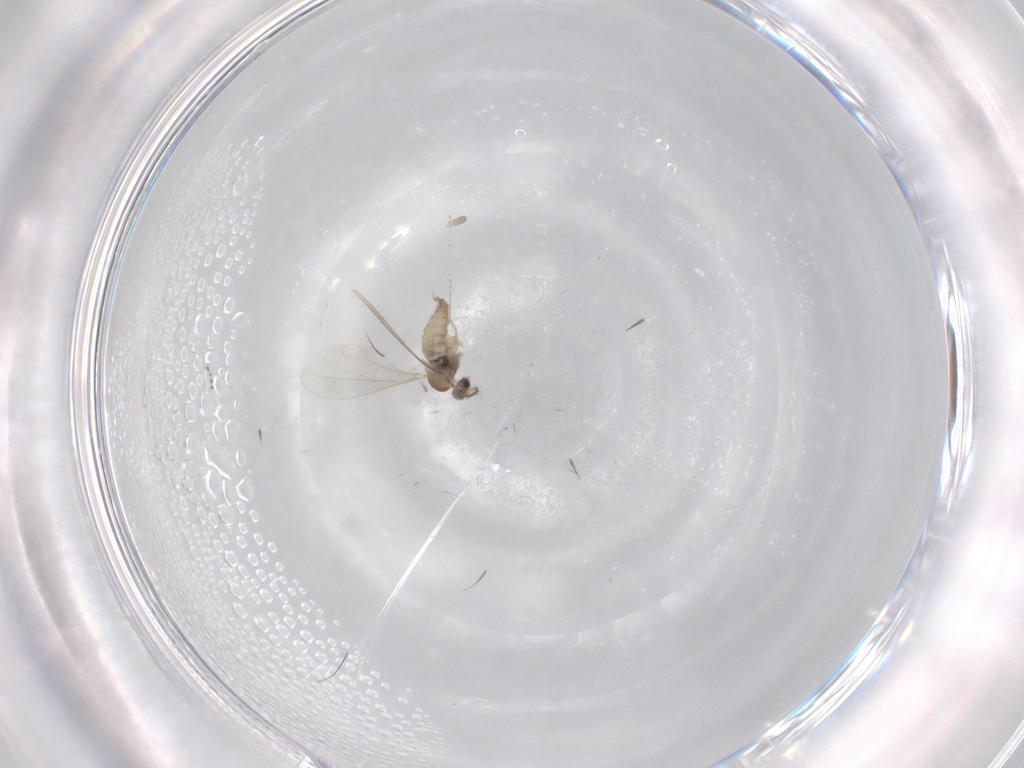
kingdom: Animalia
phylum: Arthropoda
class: Insecta
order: Diptera
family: Cecidomyiidae
